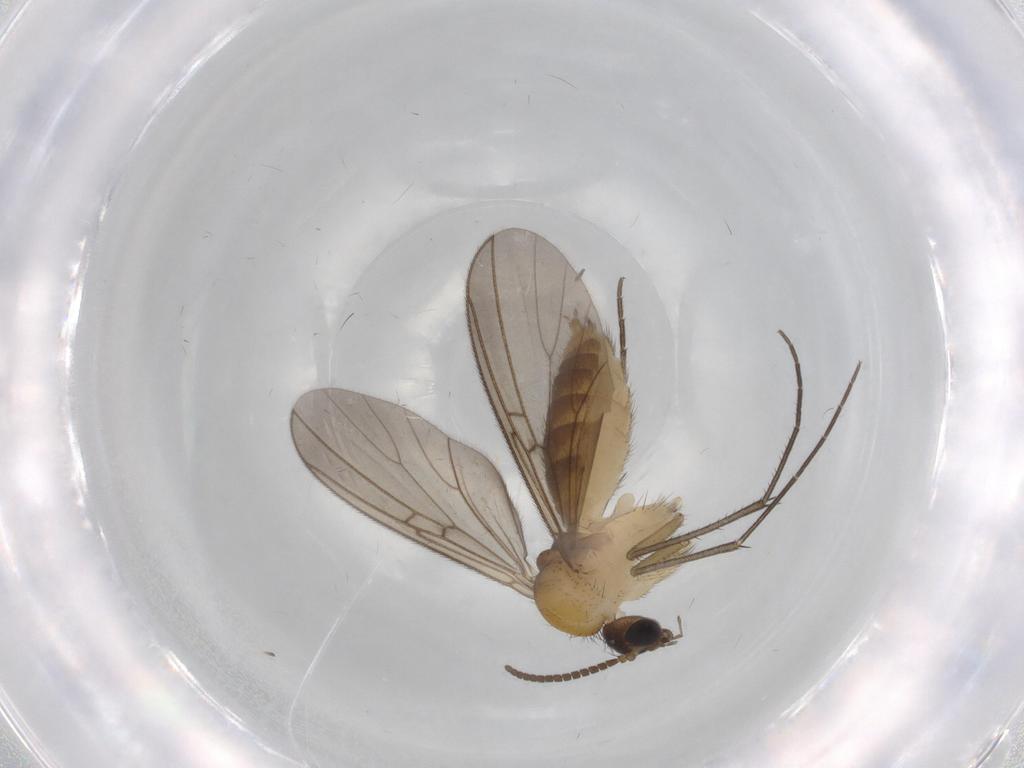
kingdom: Animalia
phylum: Arthropoda
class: Insecta
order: Diptera
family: Mycetophilidae
